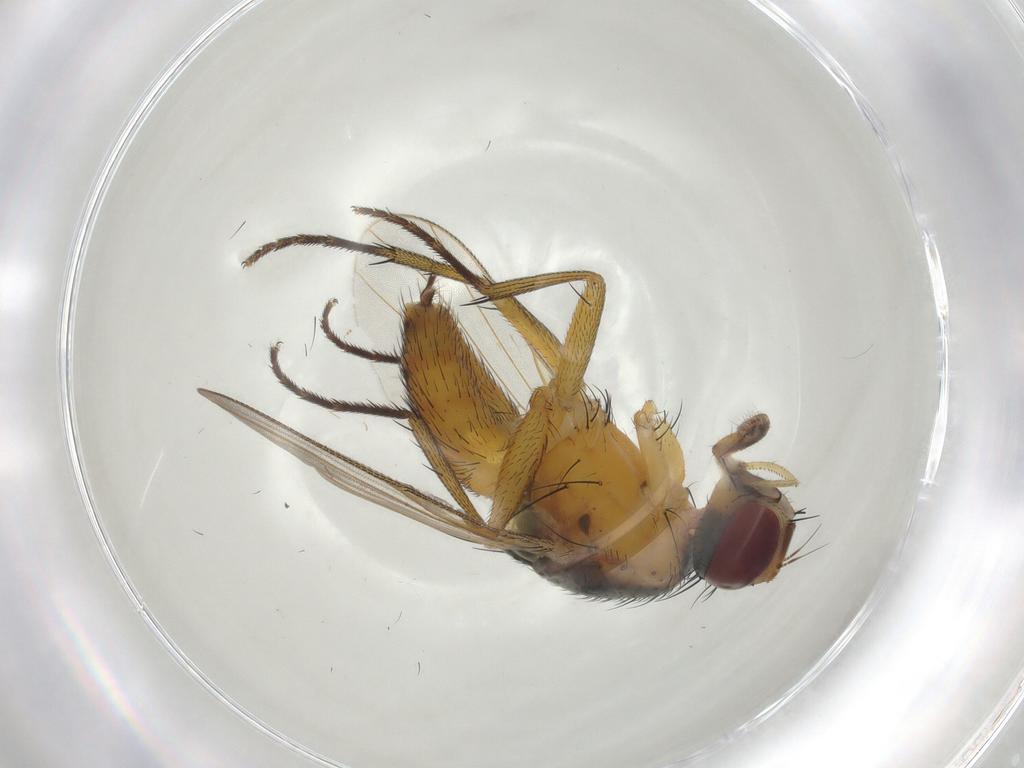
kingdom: Animalia
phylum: Arthropoda
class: Insecta
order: Diptera
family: Muscidae
